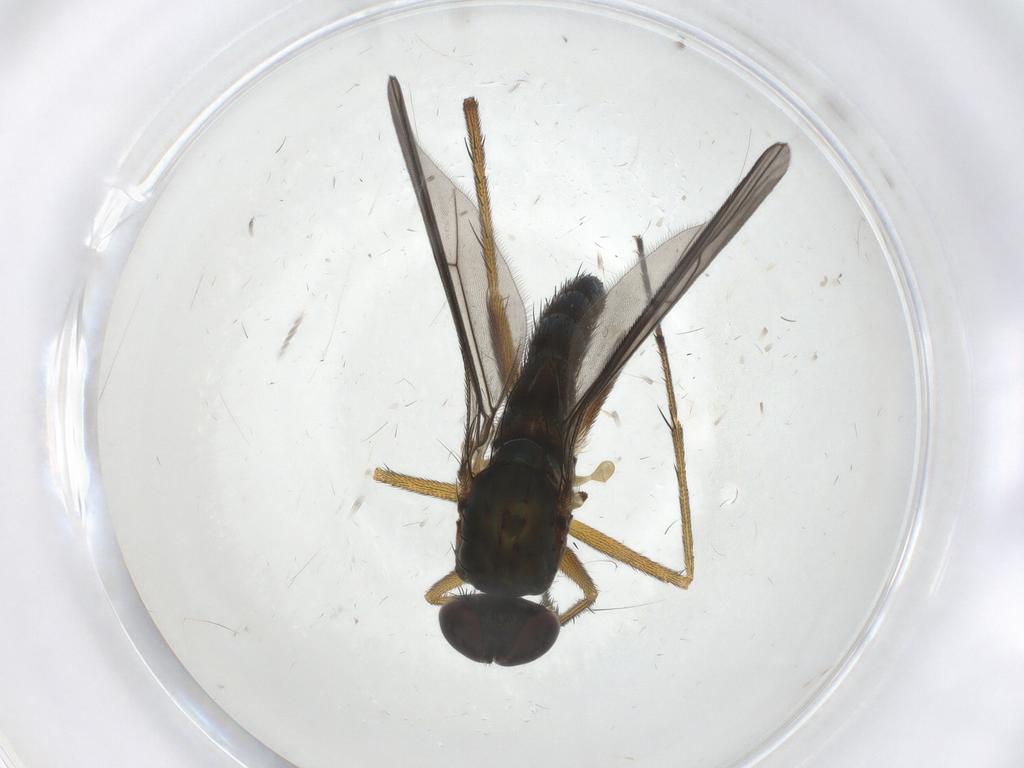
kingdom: Animalia
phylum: Arthropoda
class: Insecta
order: Diptera
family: Dolichopodidae
